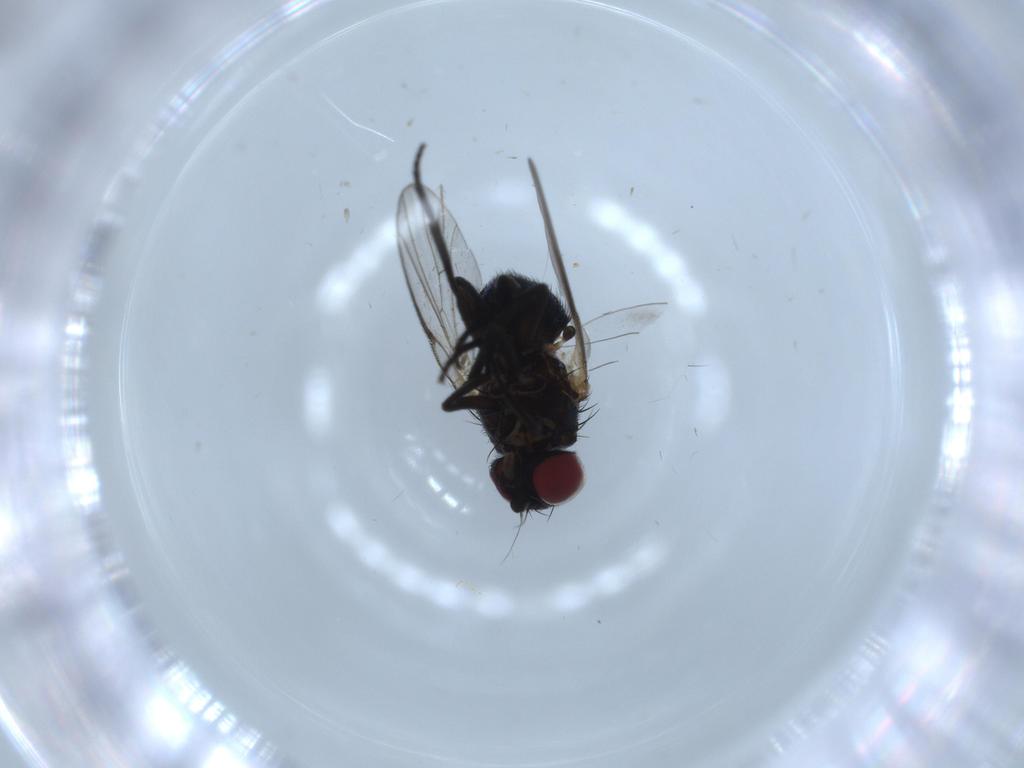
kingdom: Animalia
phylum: Arthropoda
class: Insecta
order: Diptera
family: Agromyzidae
